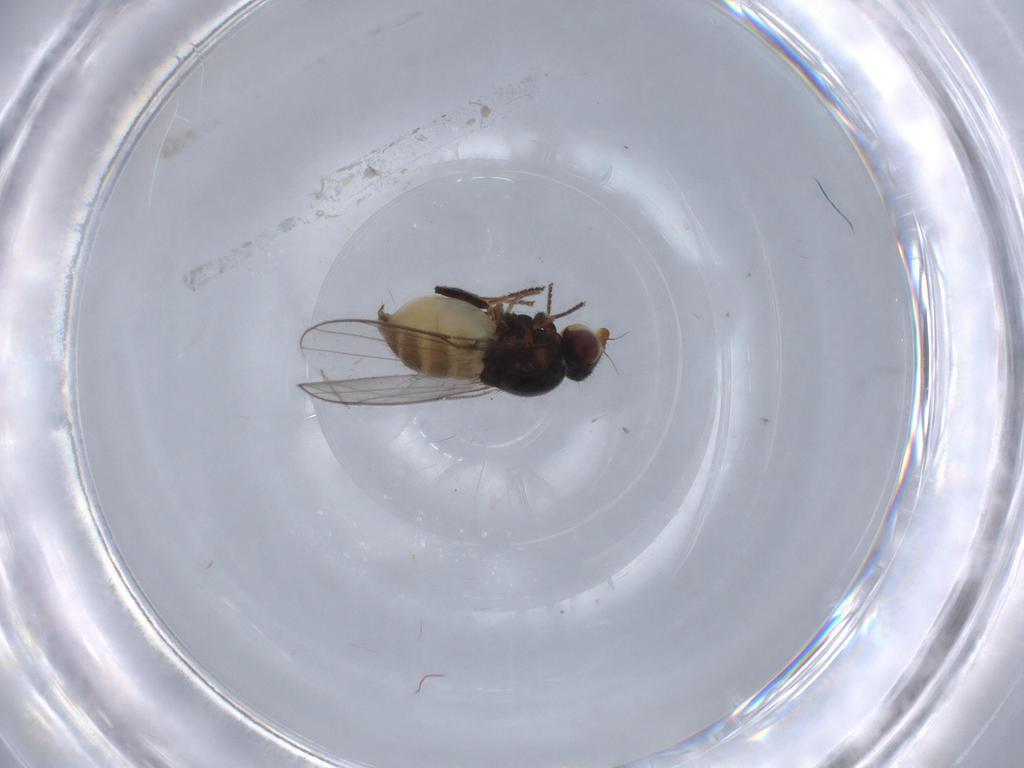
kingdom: Animalia
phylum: Arthropoda
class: Insecta
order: Diptera
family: Chloropidae
